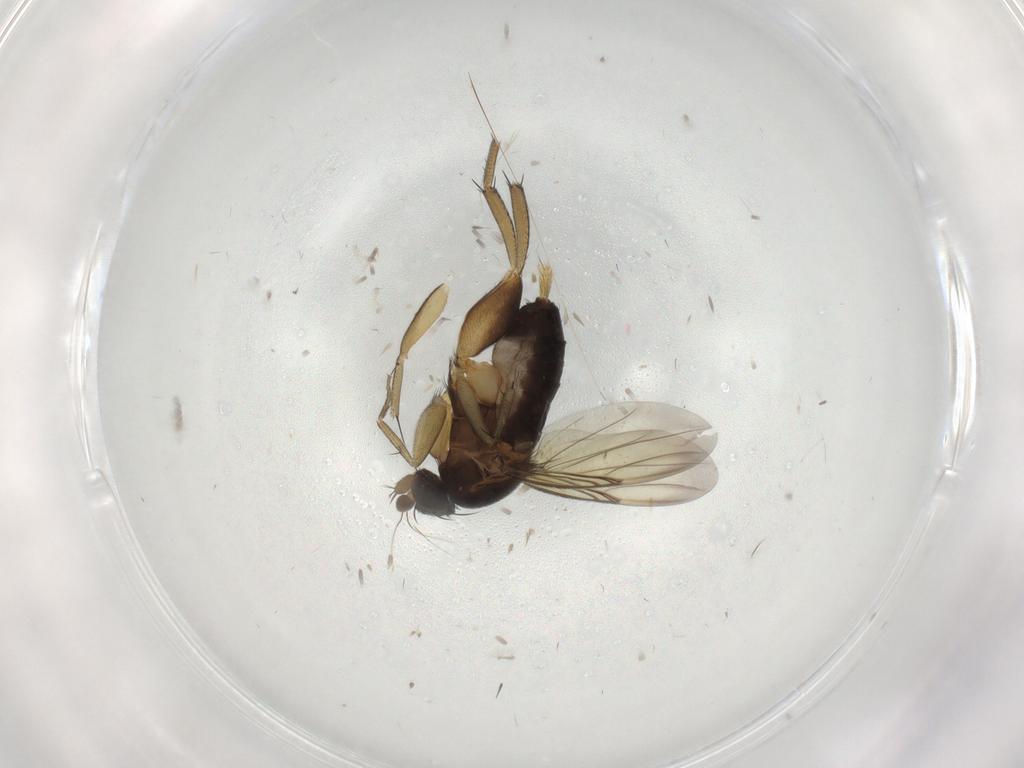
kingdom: Animalia
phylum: Arthropoda
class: Insecta
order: Diptera
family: Phoridae
